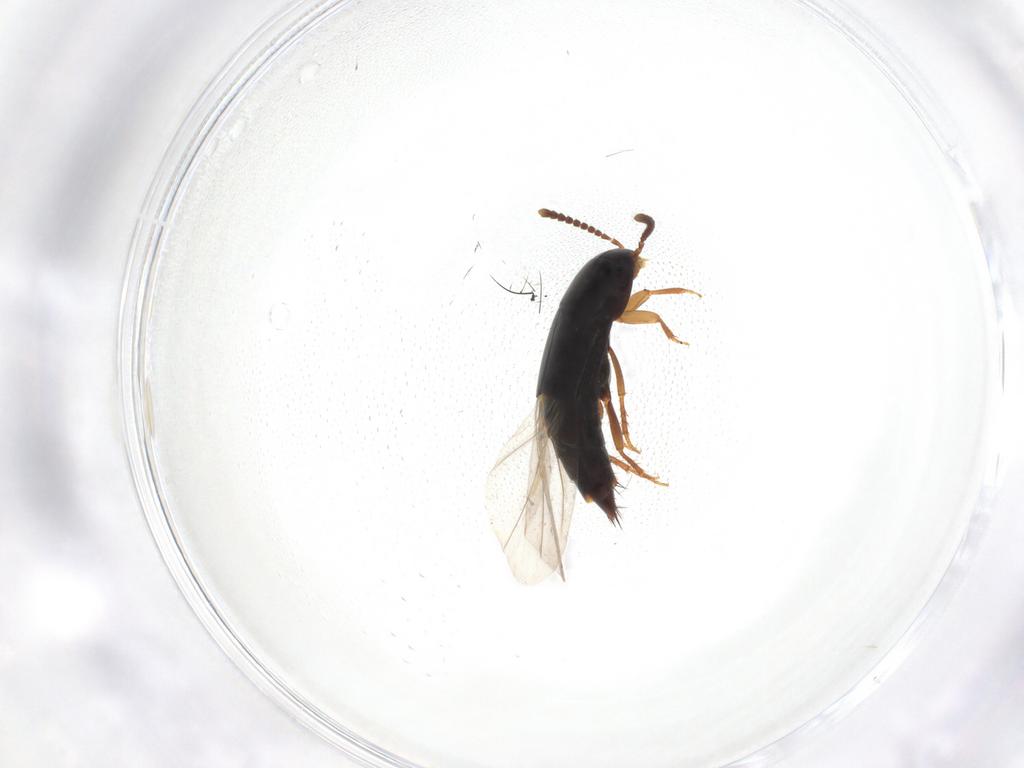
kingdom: Animalia
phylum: Arthropoda
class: Insecta
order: Coleoptera
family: Staphylinidae
